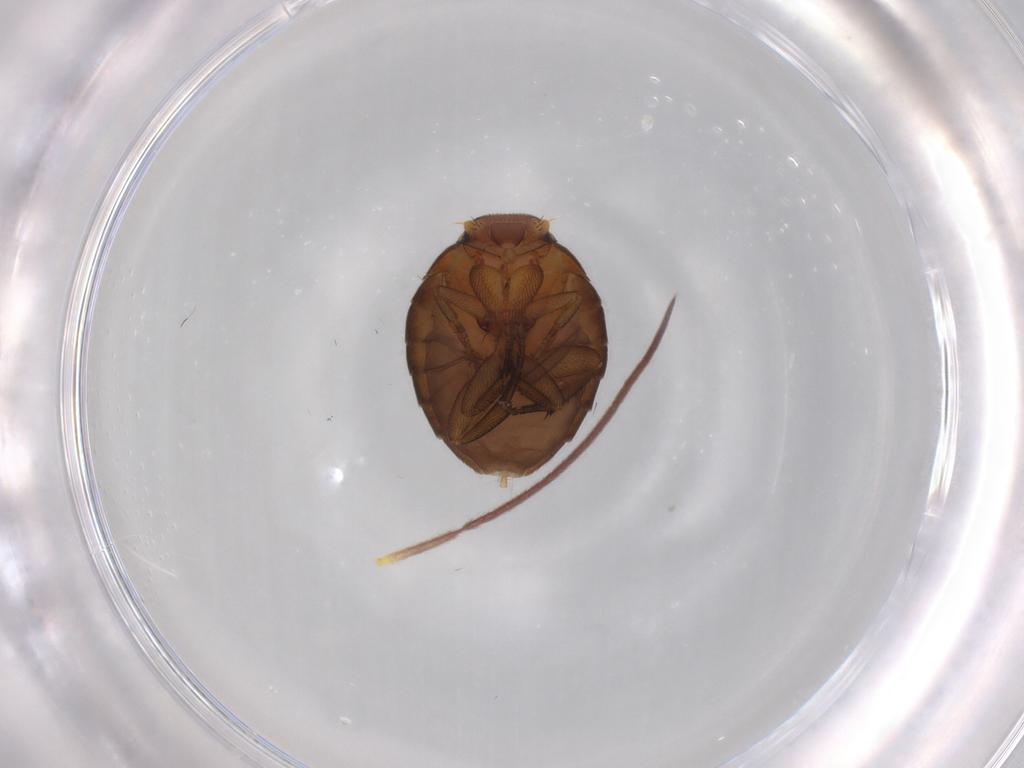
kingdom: Animalia
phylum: Arthropoda
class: Insecta
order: Diptera
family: Phoridae
